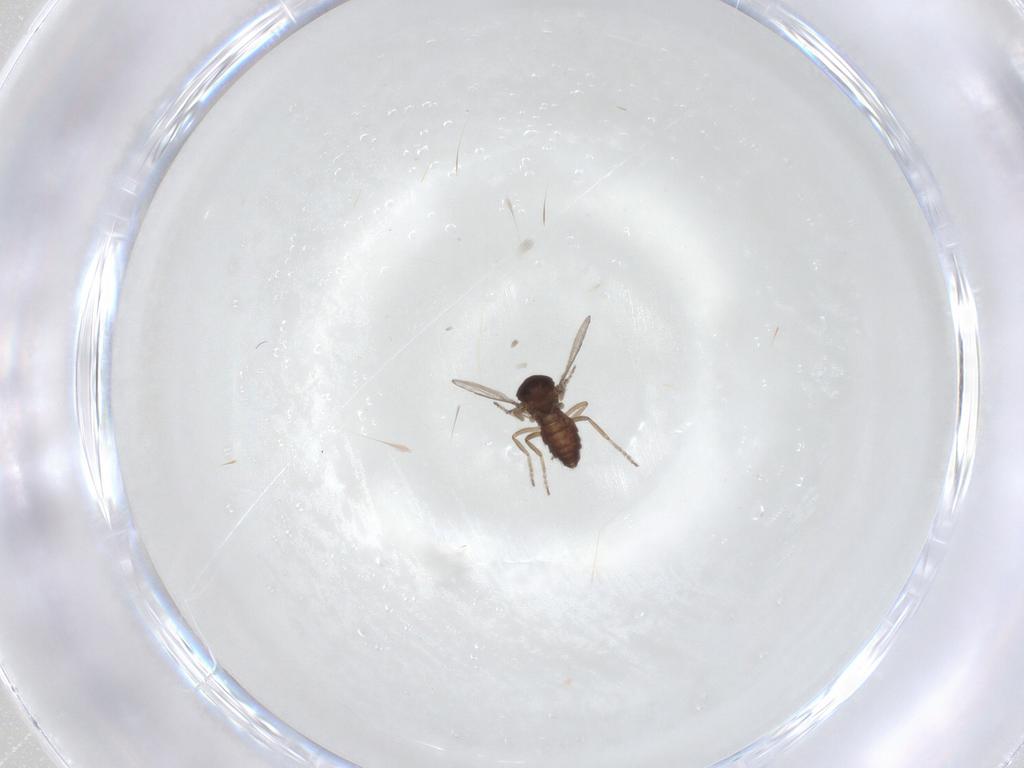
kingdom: Animalia
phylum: Arthropoda
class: Insecta
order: Diptera
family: Ceratopogonidae
